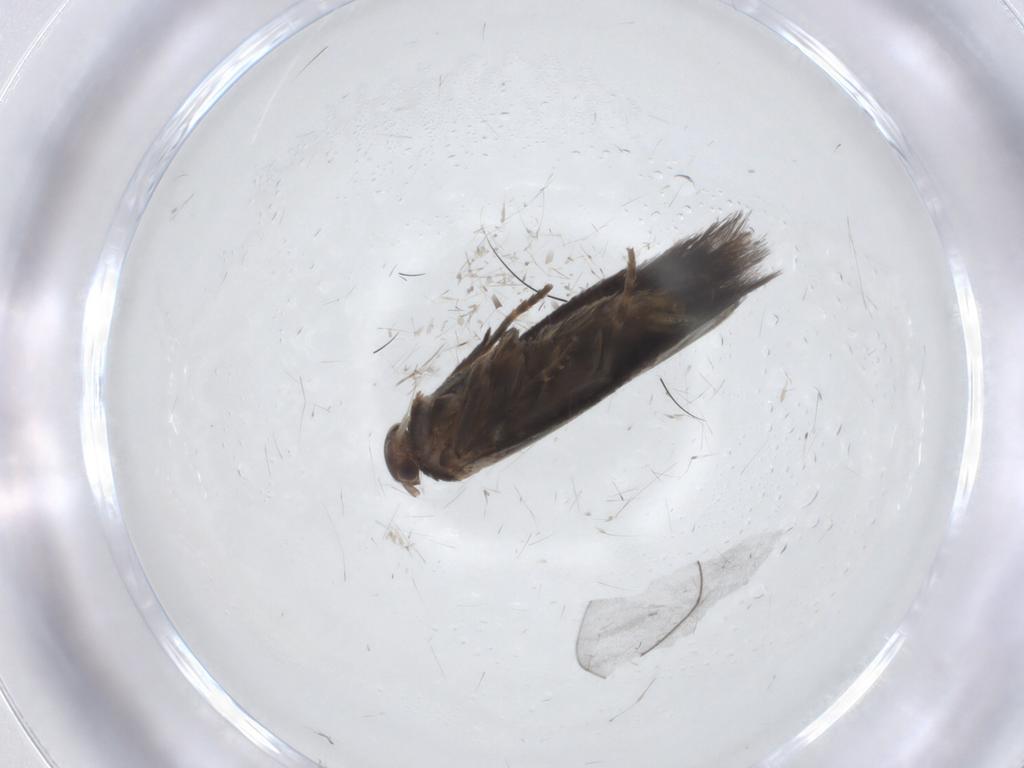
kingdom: Animalia
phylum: Arthropoda
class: Insecta
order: Lepidoptera
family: Elachistidae
